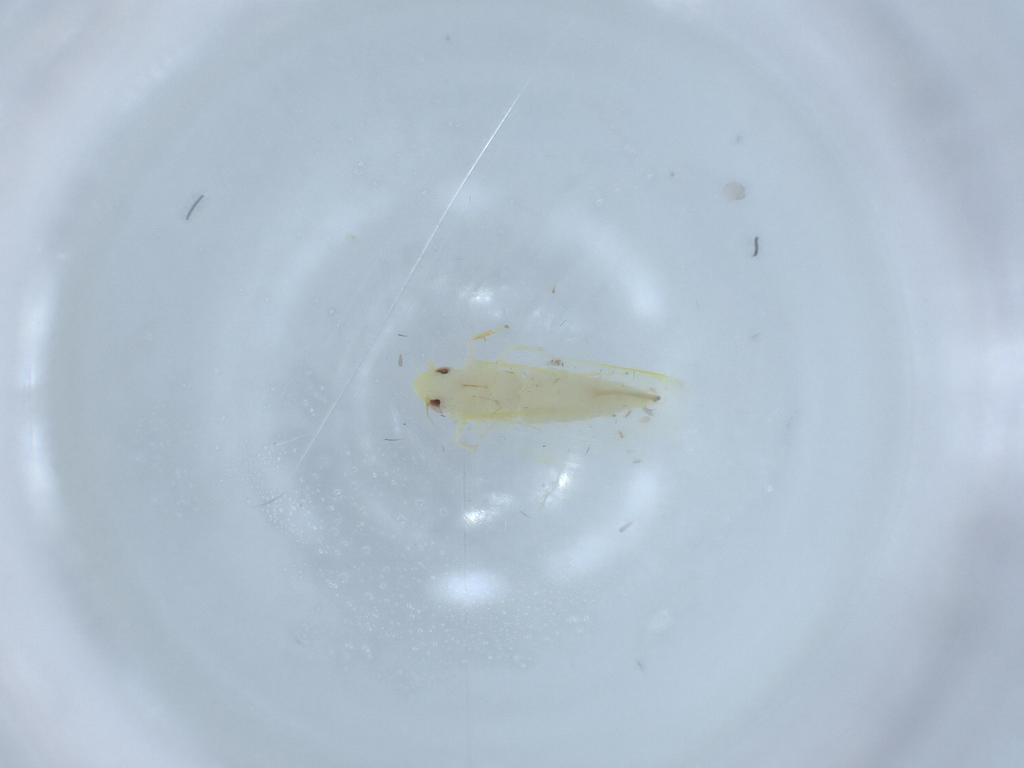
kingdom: Animalia
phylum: Arthropoda
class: Insecta
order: Hemiptera
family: Cicadellidae
